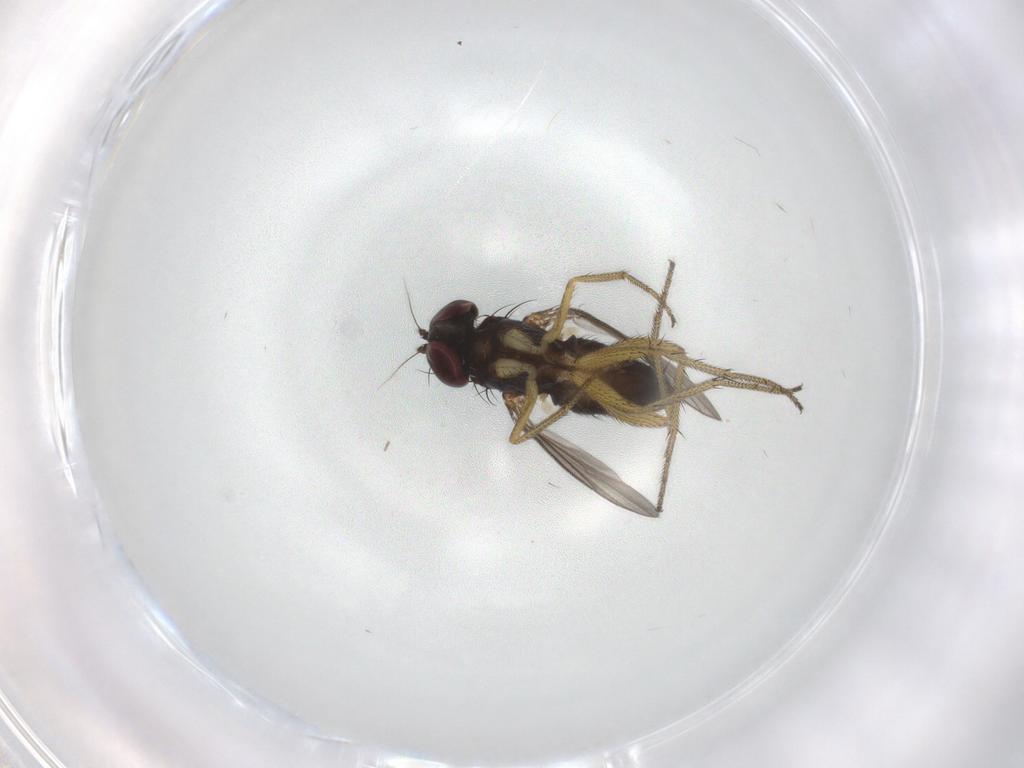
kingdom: Animalia
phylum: Arthropoda
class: Insecta
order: Diptera
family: Dolichopodidae
